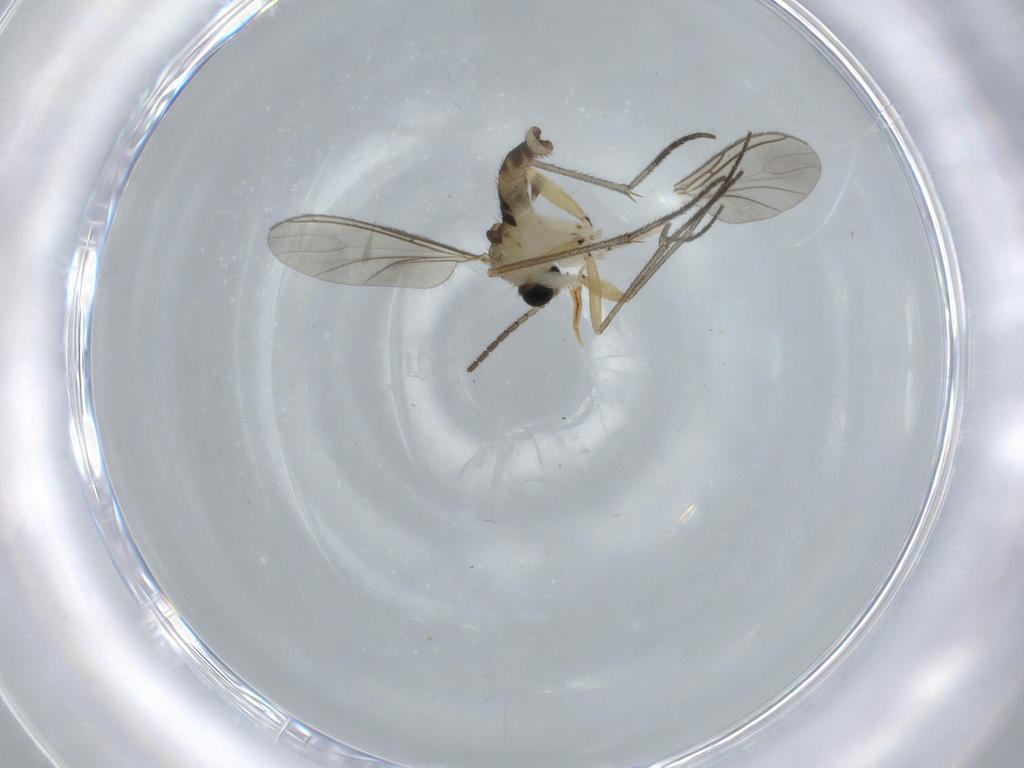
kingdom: Animalia
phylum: Arthropoda
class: Insecta
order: Diptera
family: Sciaridae
